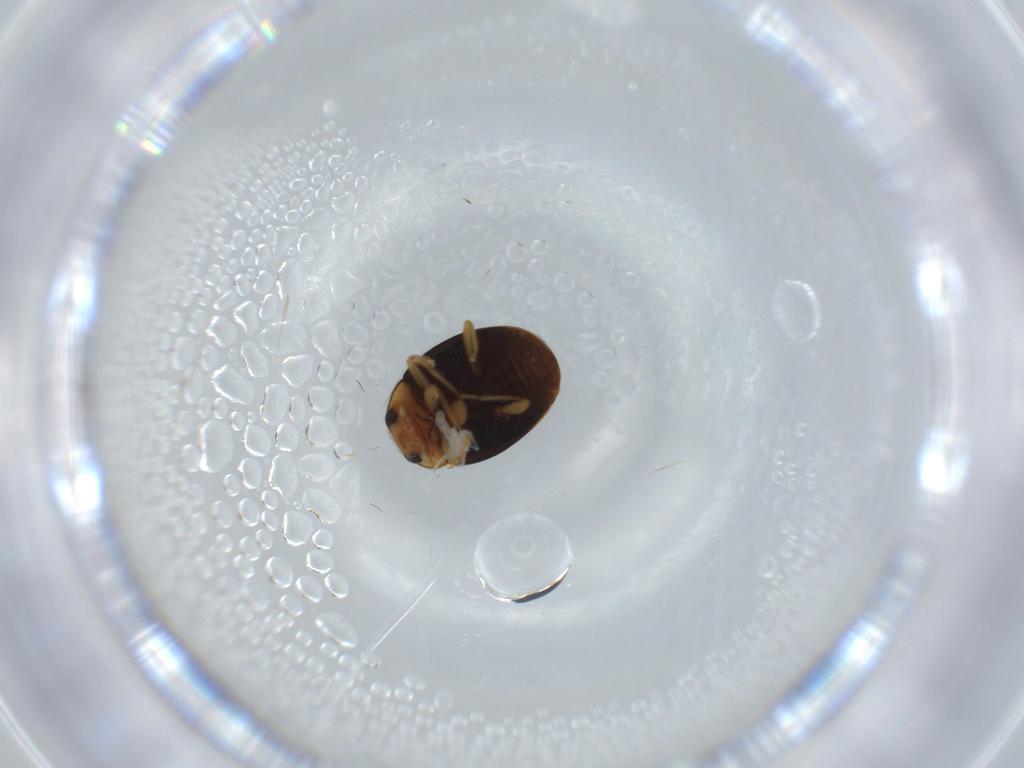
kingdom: Animalia
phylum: Arthropoda
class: Insecta
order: Coleoptera
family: Coccinellidae
